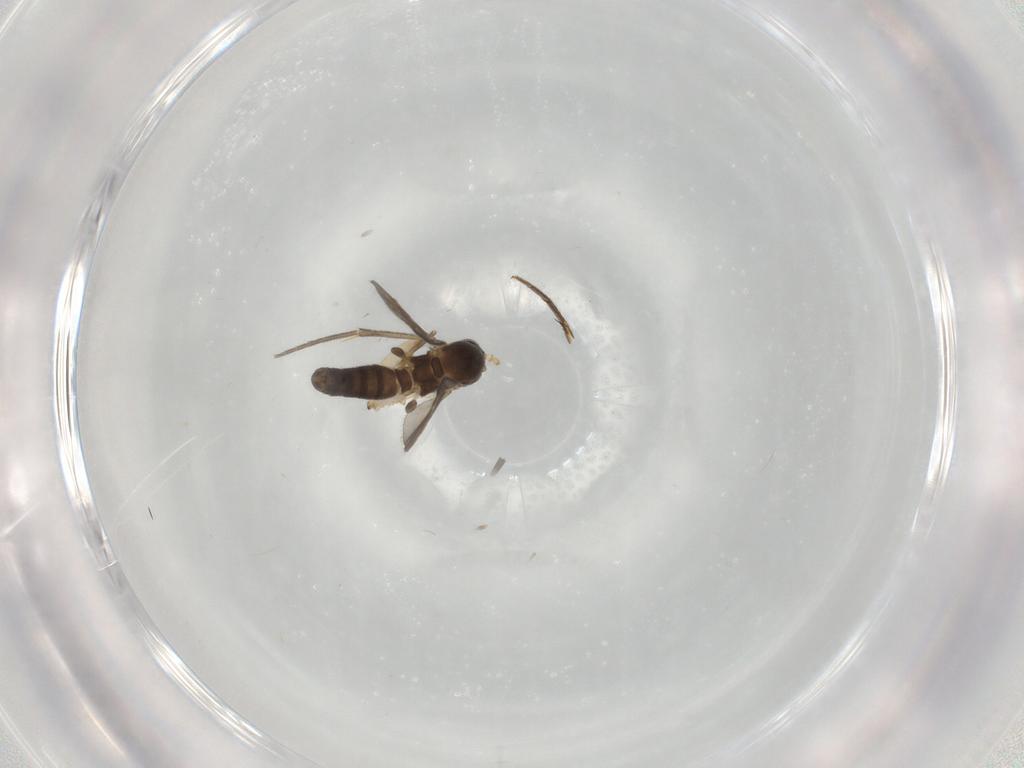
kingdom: Animalia
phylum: Arthropoda
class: Insecta
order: Diptera
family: Mycetophilidae
